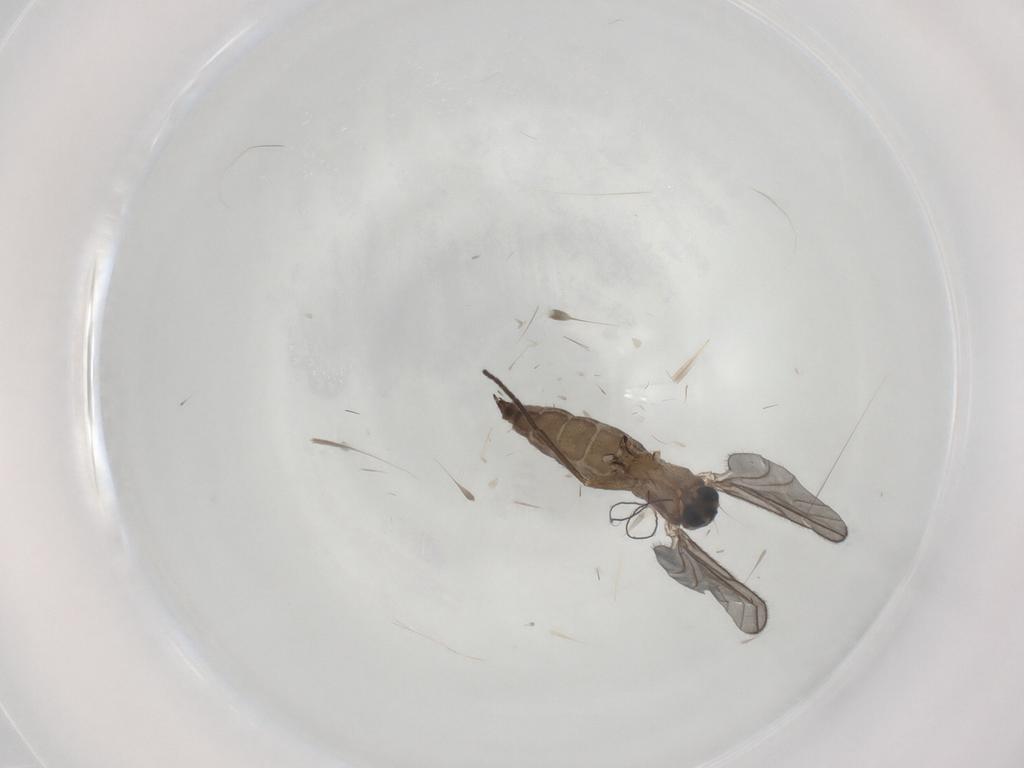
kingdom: Animalia
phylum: Arthropoda
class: Insecta
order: Diptera
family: Sciaridae
